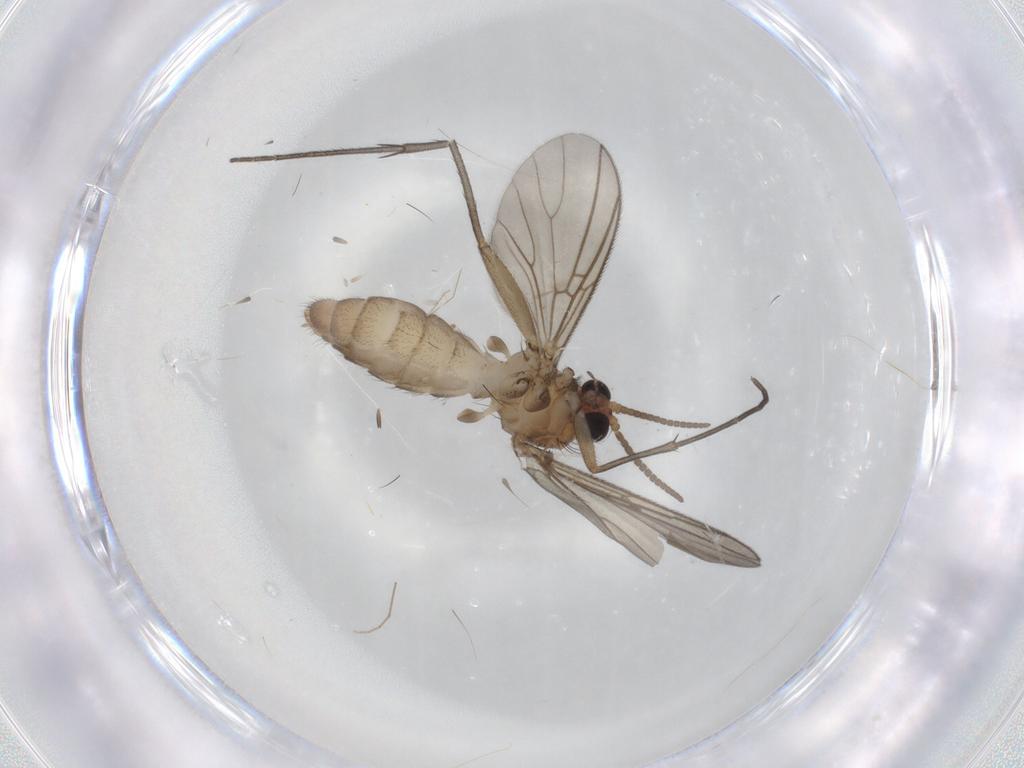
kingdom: Animalia
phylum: Arthropoda
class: Insecta
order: Diptera
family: Mycetophilidae
